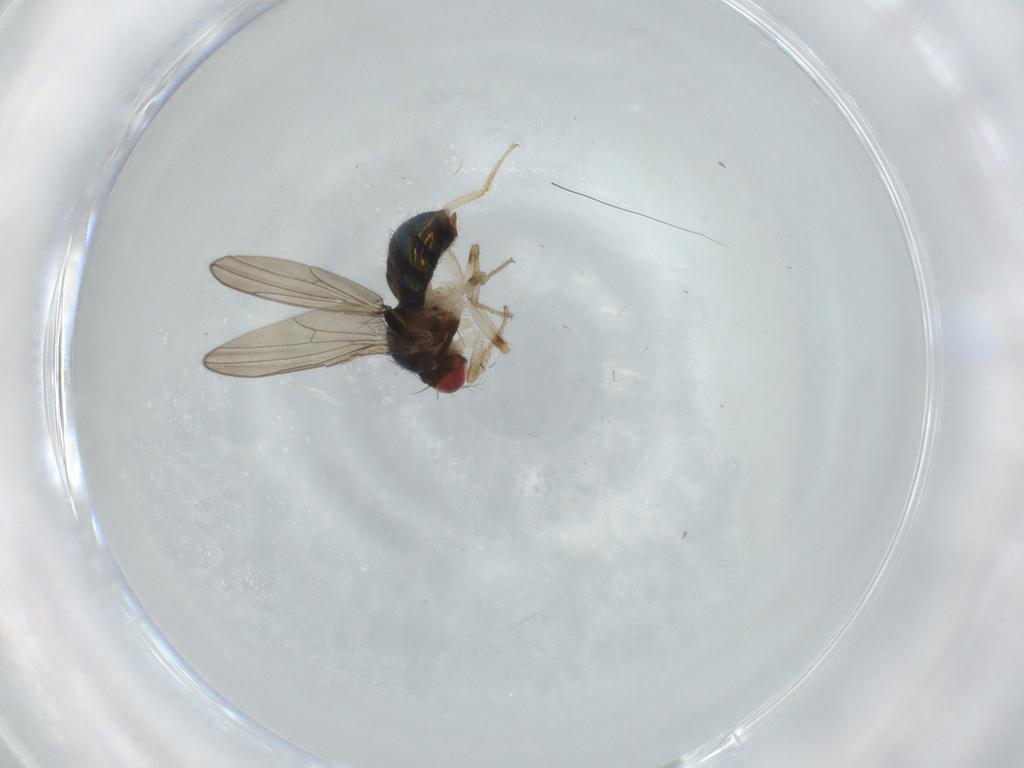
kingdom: Animalia
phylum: Arthropoda
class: Insecta
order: Diptera
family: Drosophilidae
